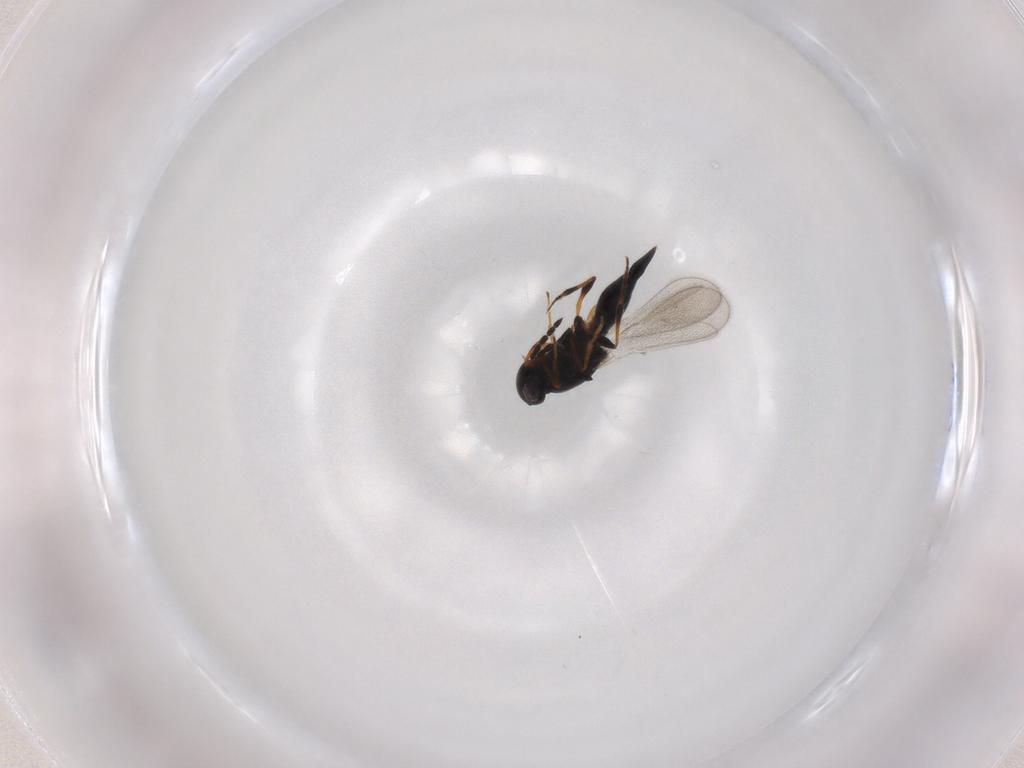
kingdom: Animalia
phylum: Arthropoda
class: Insecta
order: Hymenoptera
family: Platygastridae
